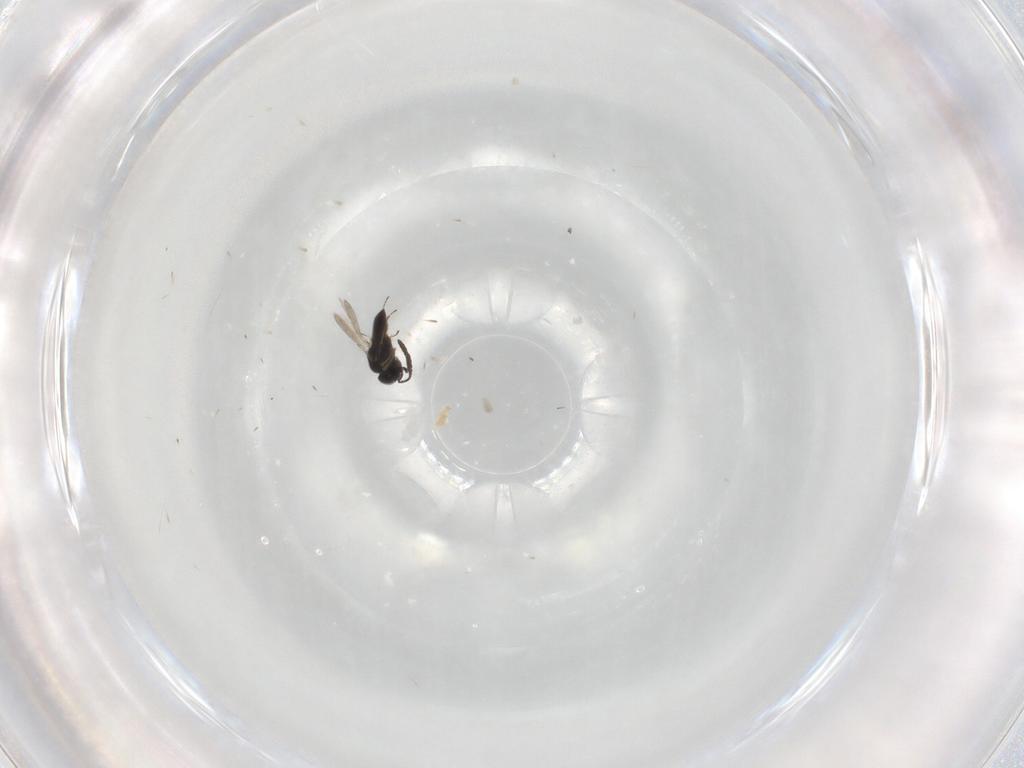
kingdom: Animalia
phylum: Arthropoda
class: Insecta
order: Hymenoptera
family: Scelionidae
